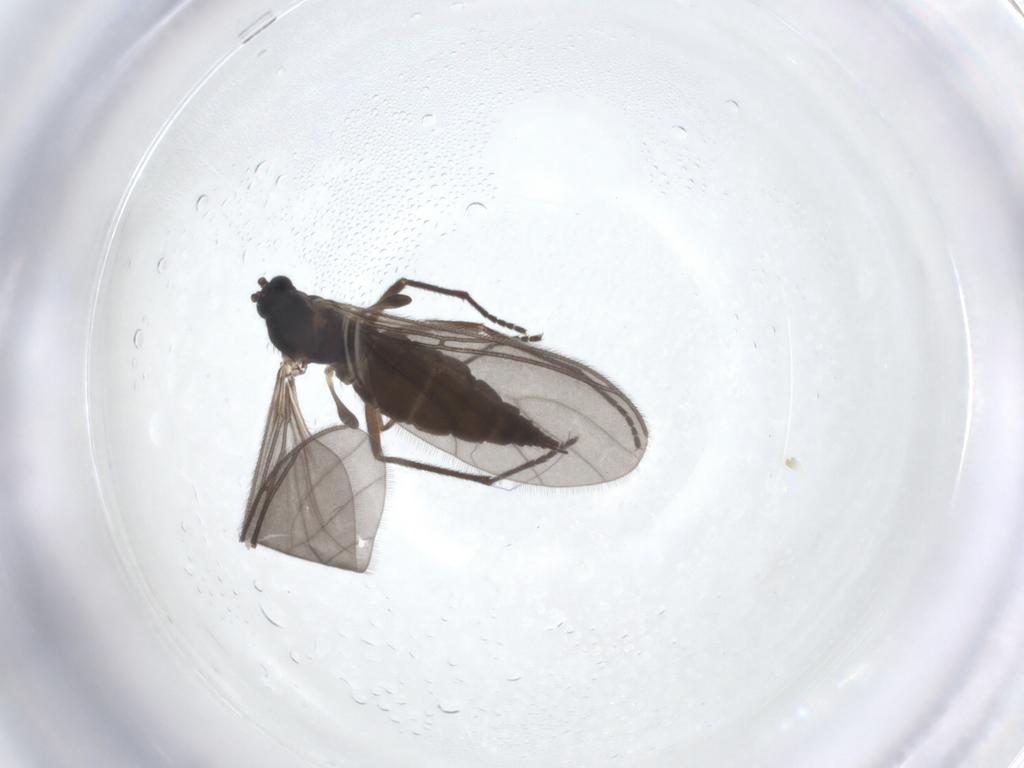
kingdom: Animalia
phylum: Arthropoda
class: Insecta
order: Diptera
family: Sciaridae
